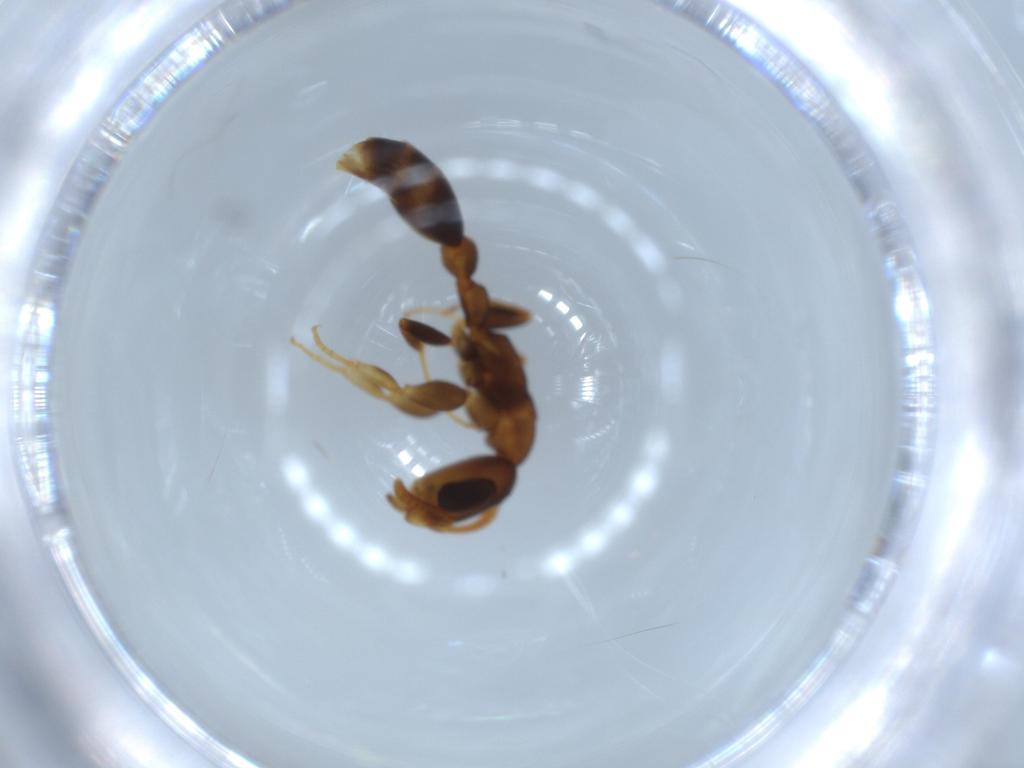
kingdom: Animalia
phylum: Arthropoda
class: Insecta
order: Hymenoptera
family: Formicidae
